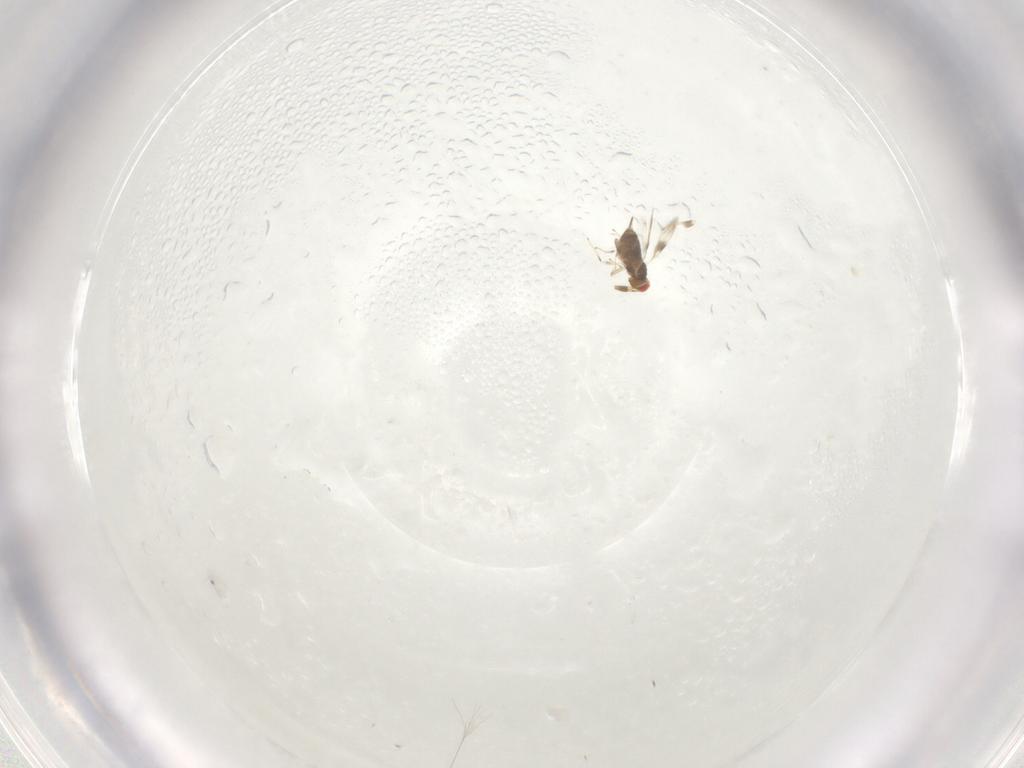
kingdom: Animalia
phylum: Arthropoda
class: Insecta
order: Hymenoptera
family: Azotidae
